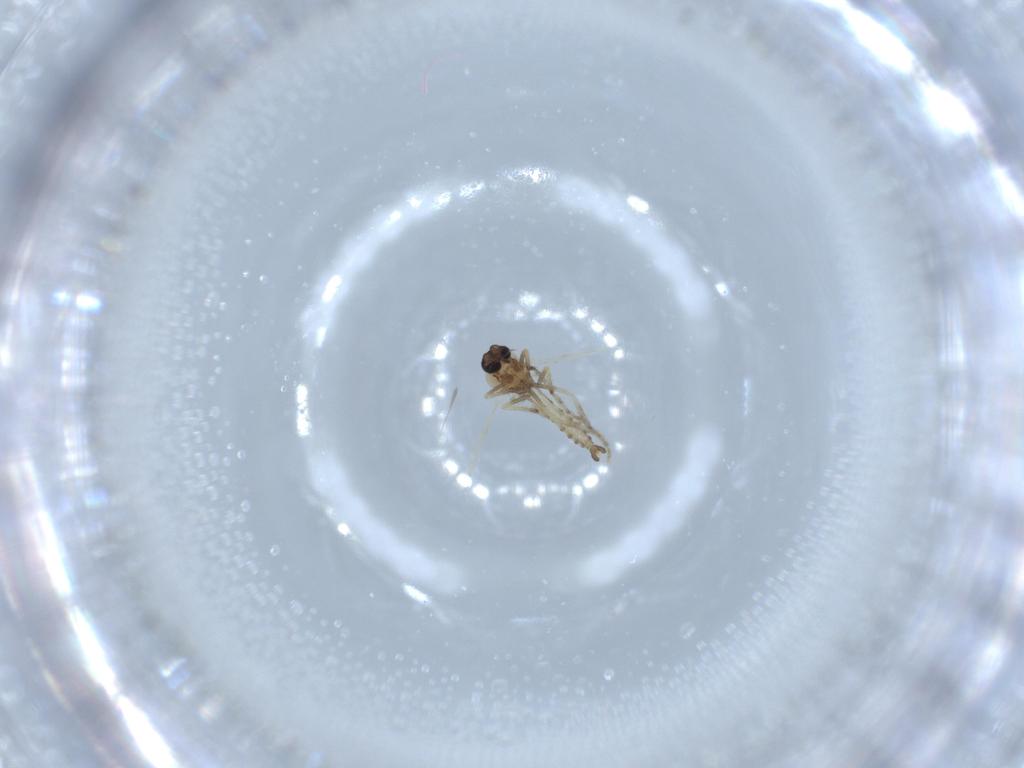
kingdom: Animalia
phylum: Arthropoda
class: Insecta
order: Diptera
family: Ceratopogonidae
